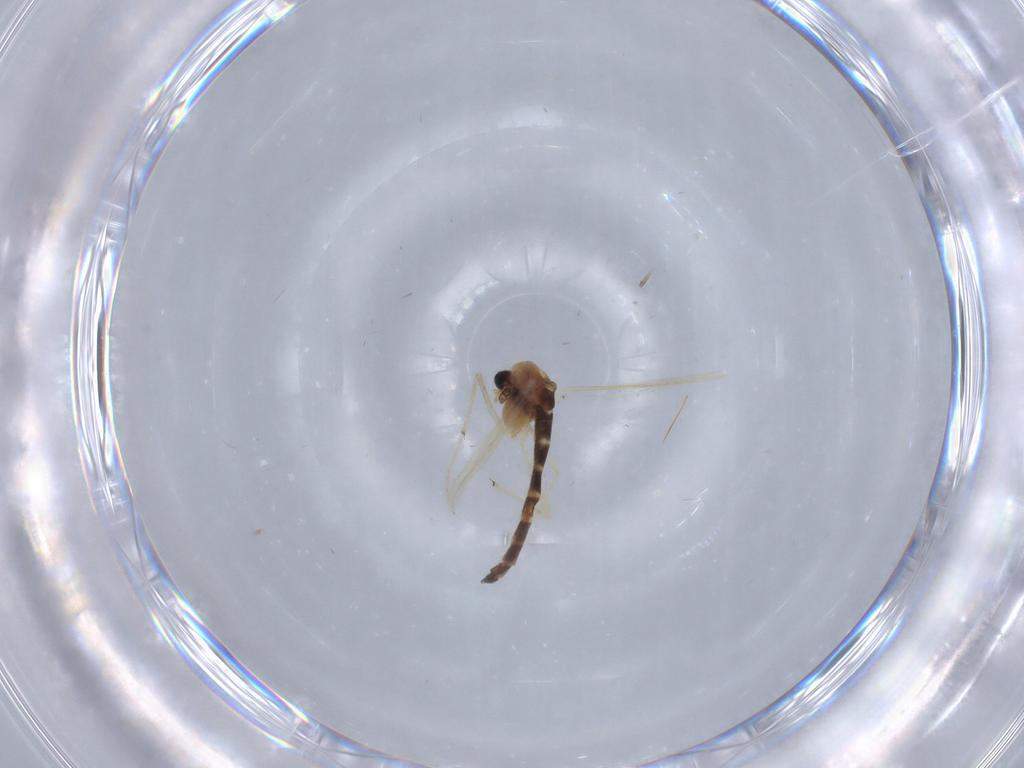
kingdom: Animalia
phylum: Arthropoda
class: Insecta
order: Diptera
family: Chironomidae
